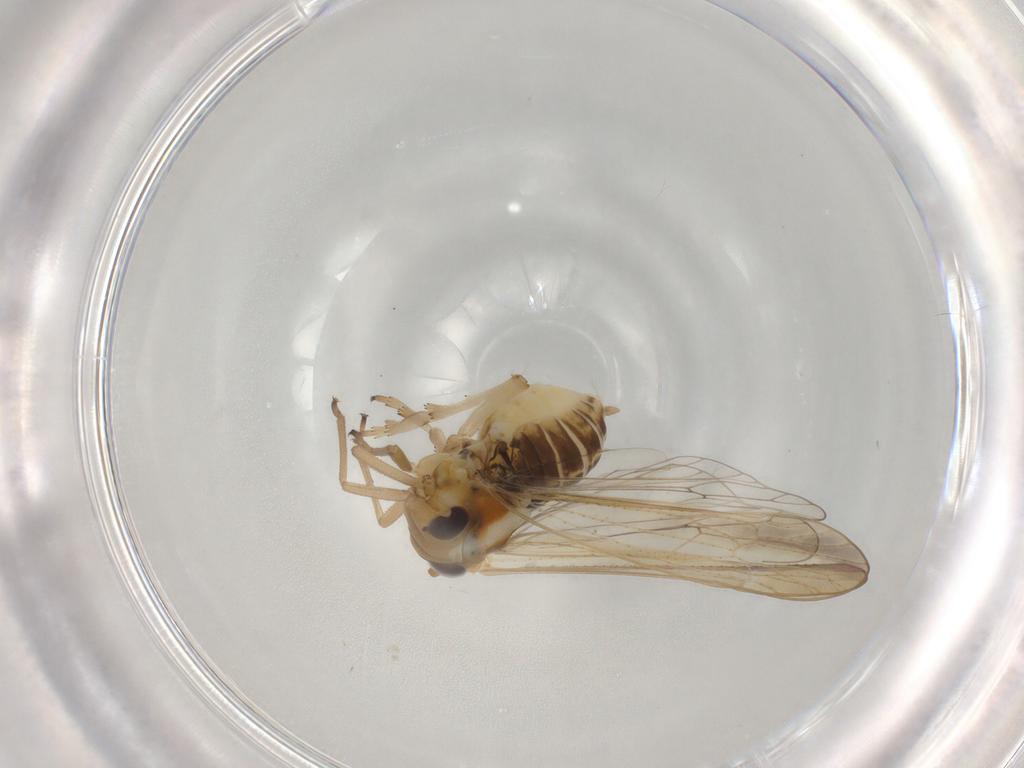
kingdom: Animalia
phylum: Arthropoda
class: Insecta
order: Hemiptera
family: Delphacidae
